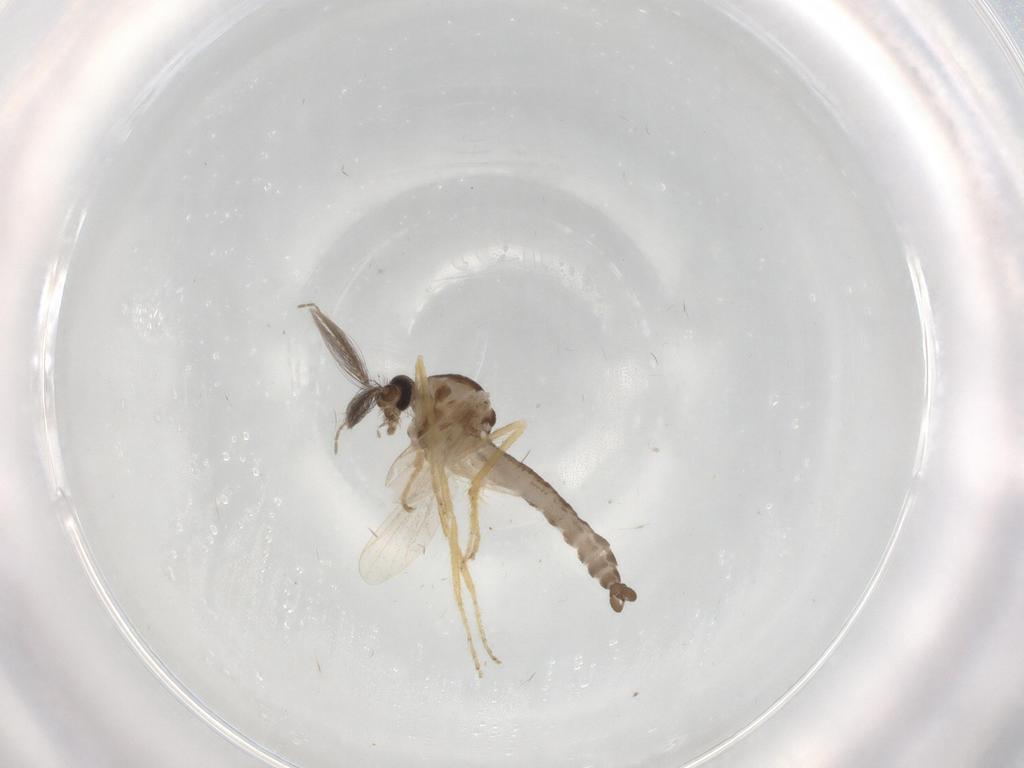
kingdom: Animalia
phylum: Arthropoda
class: Insecta
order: Diptera
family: Ceratopogonidae
